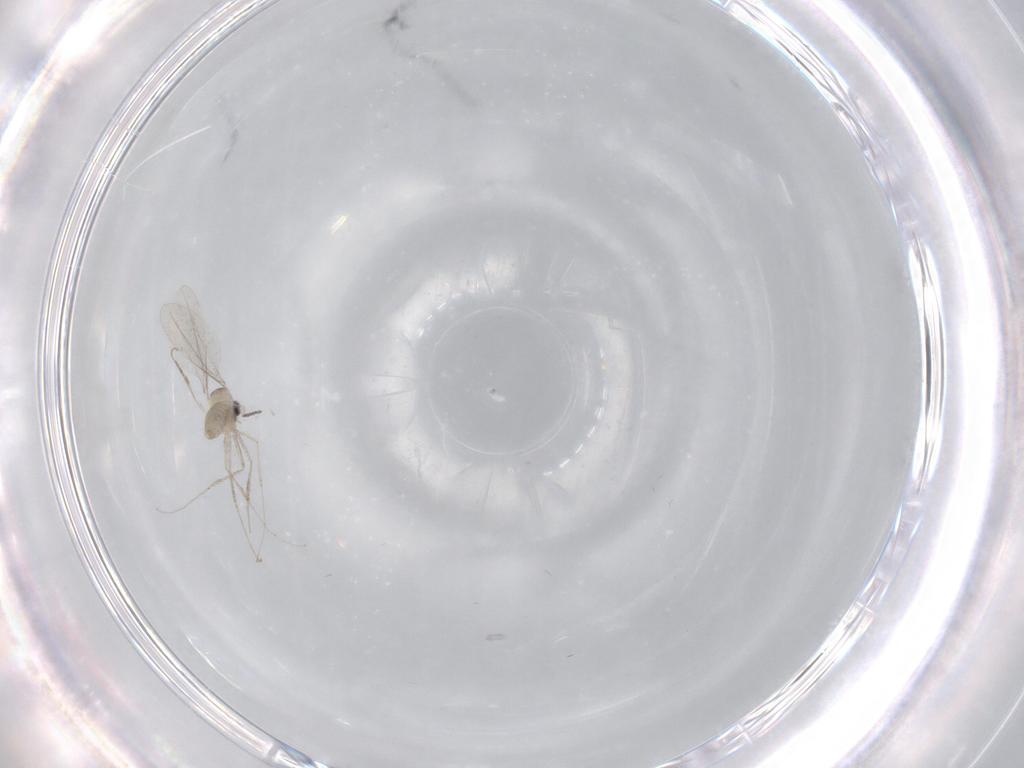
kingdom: Animalia
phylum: Arthropoda
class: Insecta
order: Diptera
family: Cecidomyiidae
